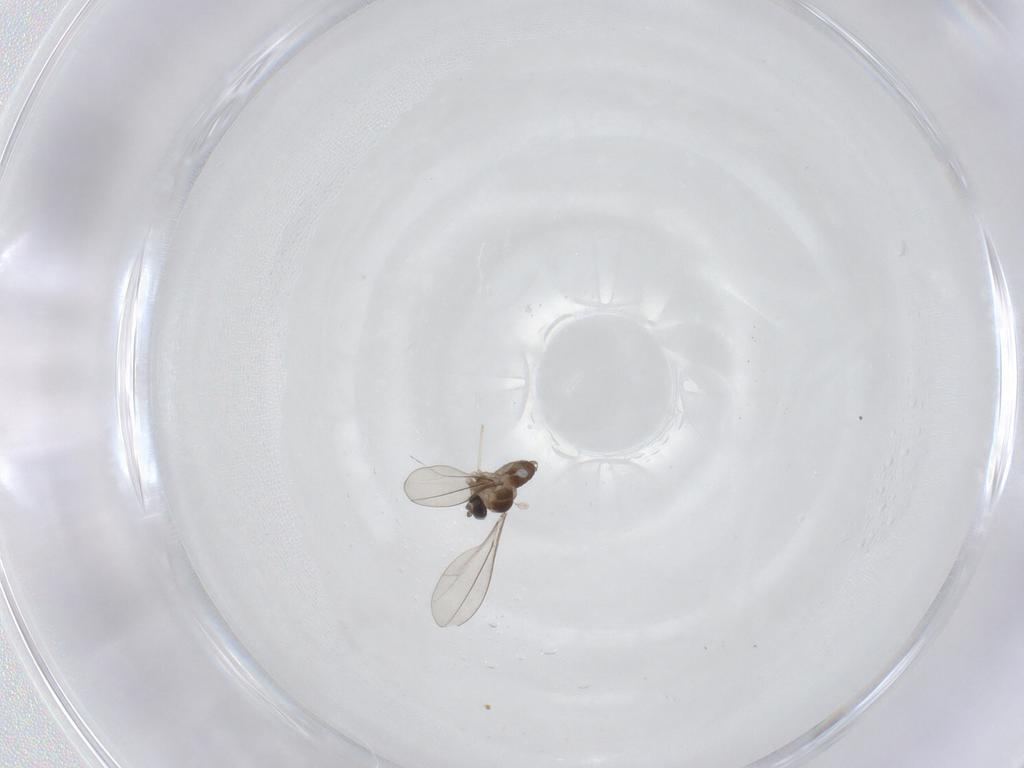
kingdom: Animalia
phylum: Arthropoda
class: Insecta
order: Diptera
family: Cecidomyiidae
